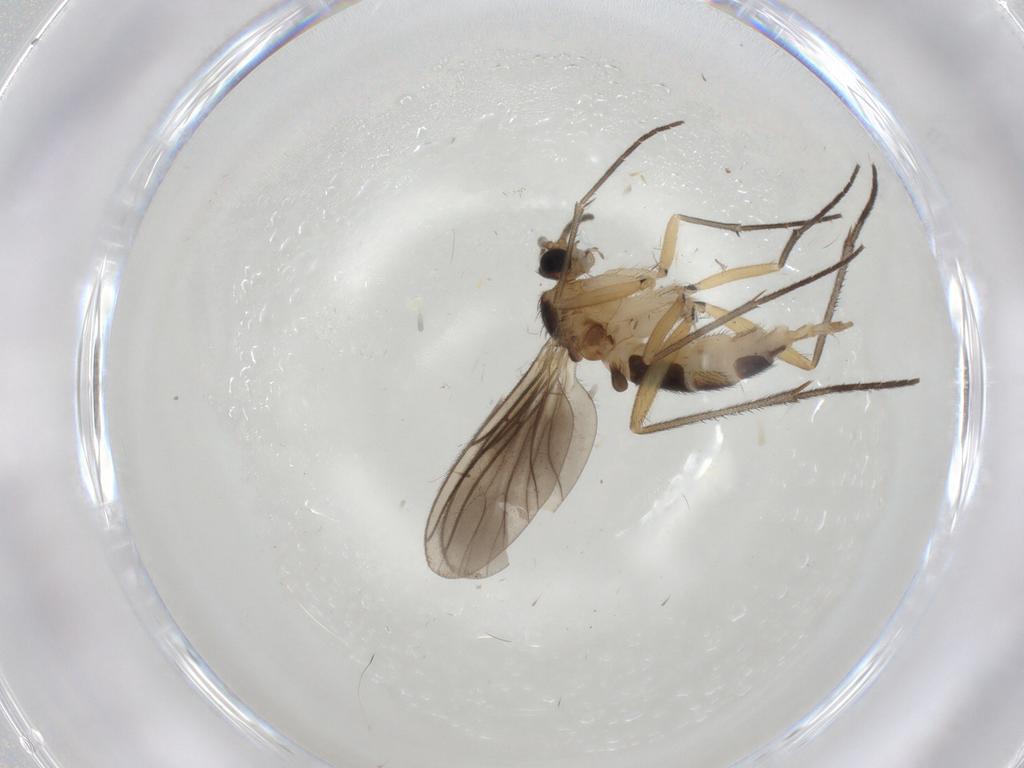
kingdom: Animalia
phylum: Arthropoda
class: Insecta
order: Diptera
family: Sciaridae
